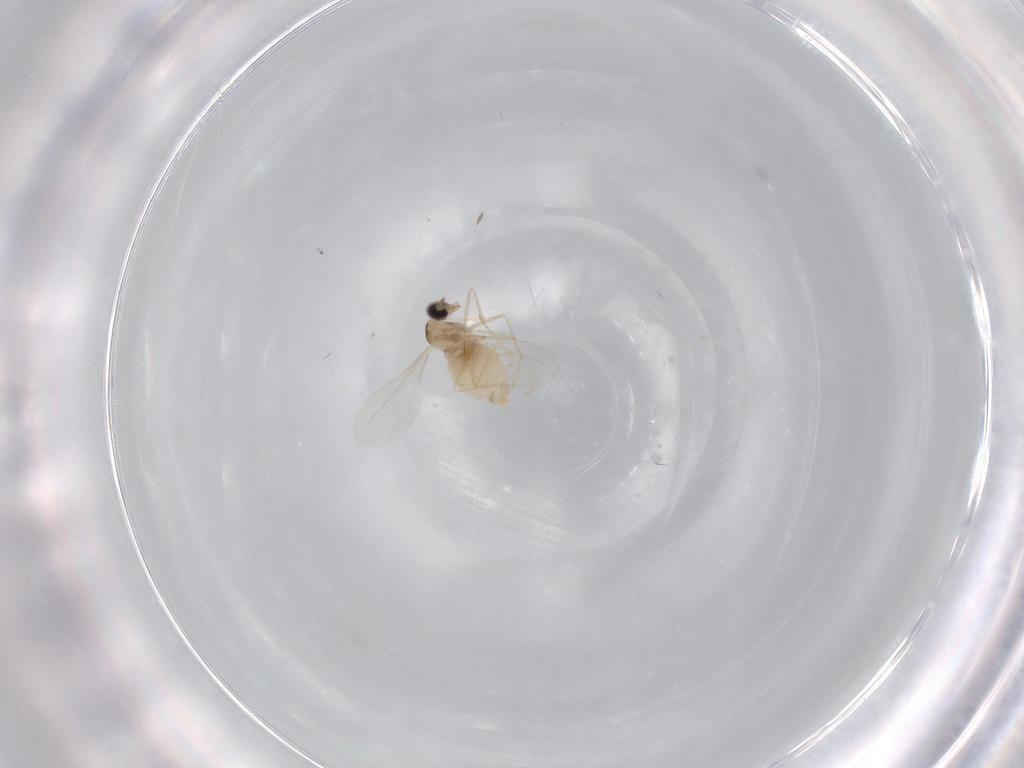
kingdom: Animalia
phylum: Arthropoda
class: Insecta
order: Diptera
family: Cecidomyiidae
